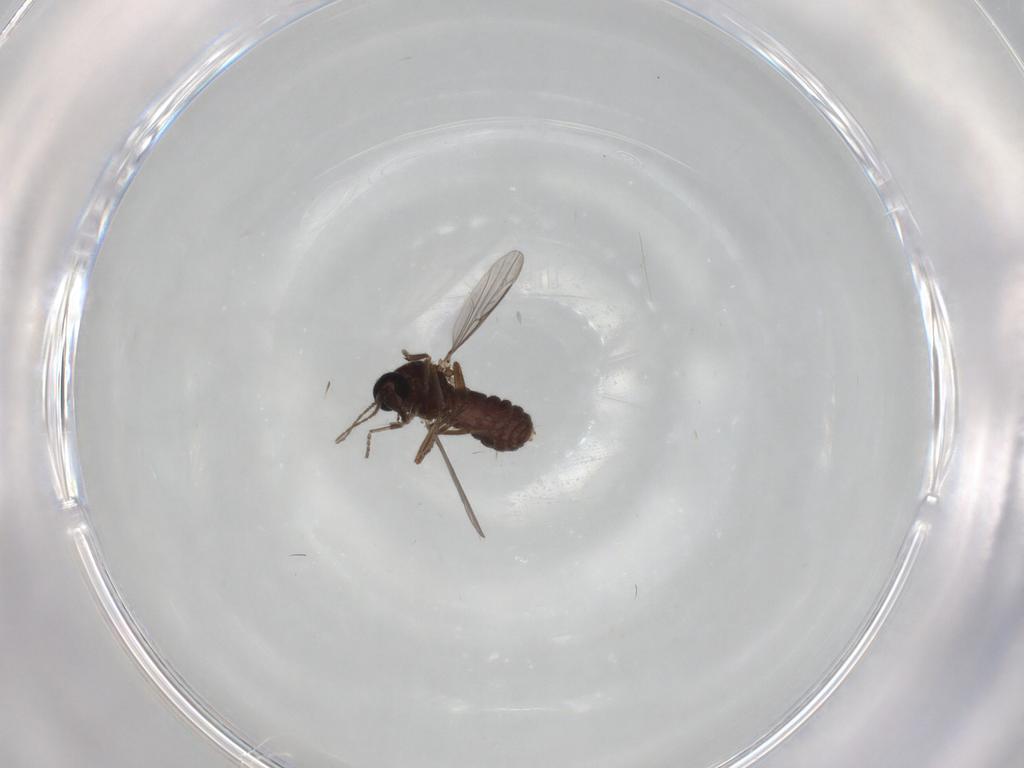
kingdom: Animalia
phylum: Arthropoda
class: Insecta
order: Diptera
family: Ceratopogonidae
